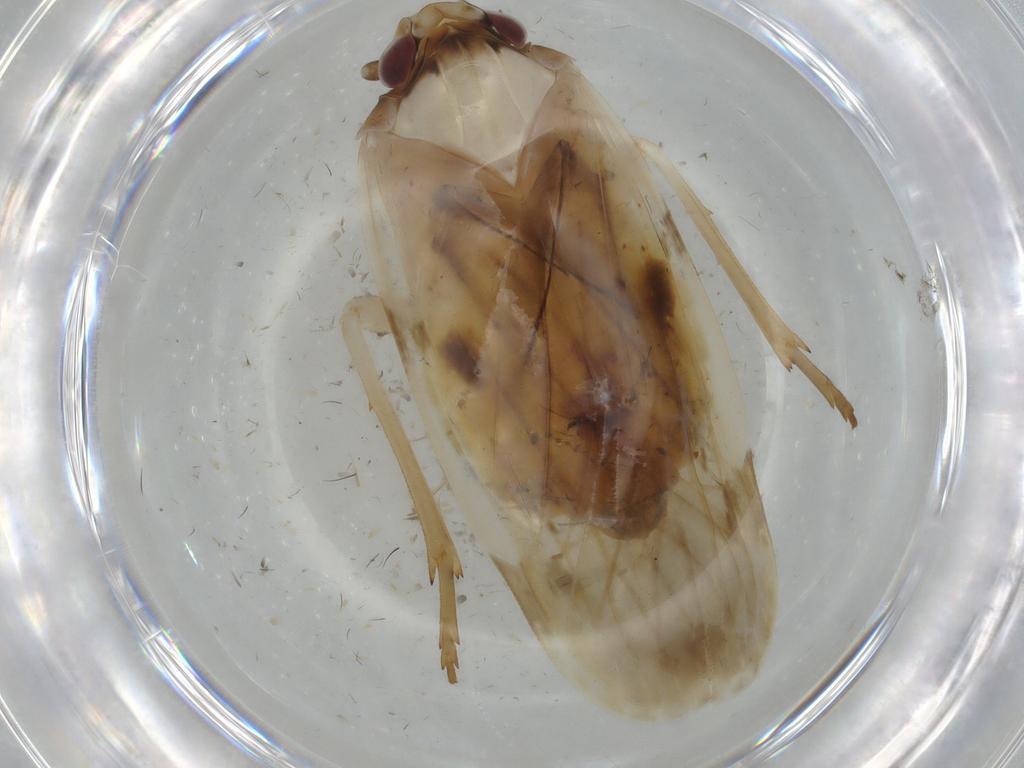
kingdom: Animalia
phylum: Arthropoda
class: Insecta
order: Hemiptera
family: Achilidae
